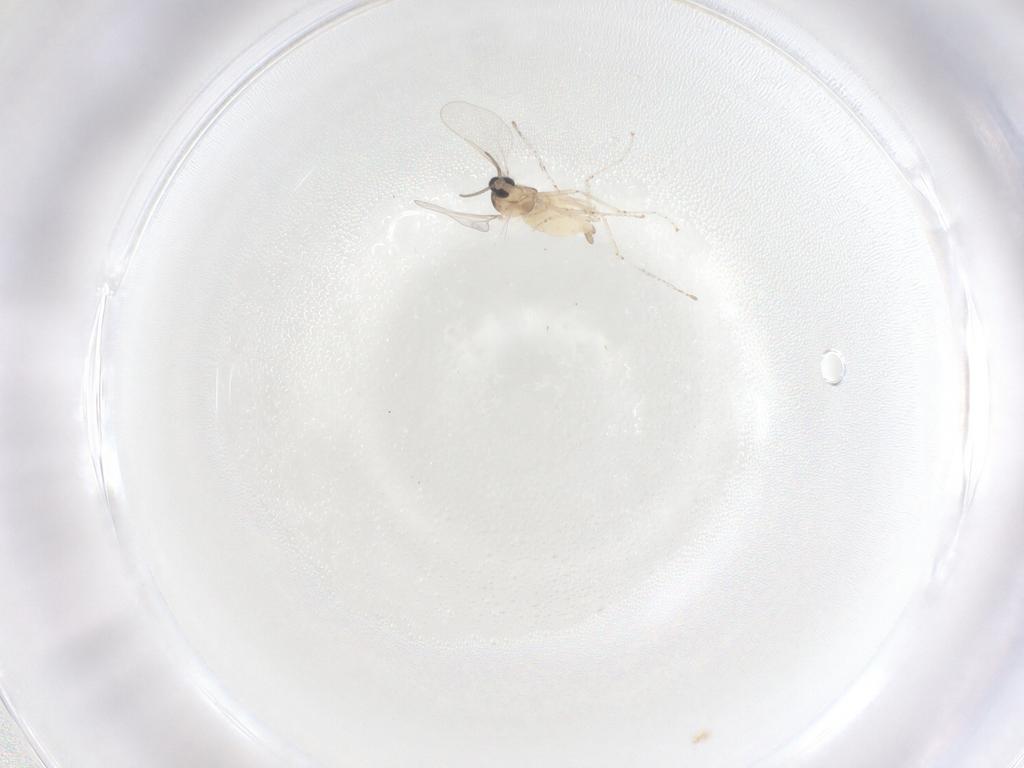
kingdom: Animalia
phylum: Arthropoda
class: Insecta
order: Diptera
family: Cecidomyiidae
